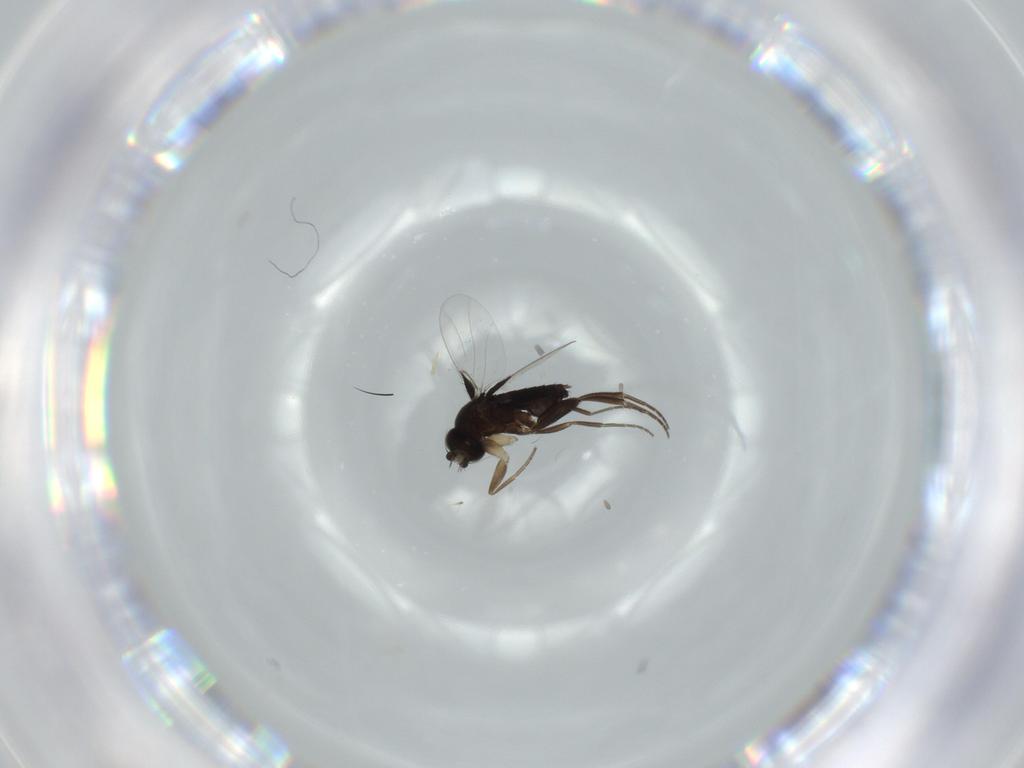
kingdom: Animalia
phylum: Arthropoda
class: Insecta
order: Diptera
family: Phoridae
